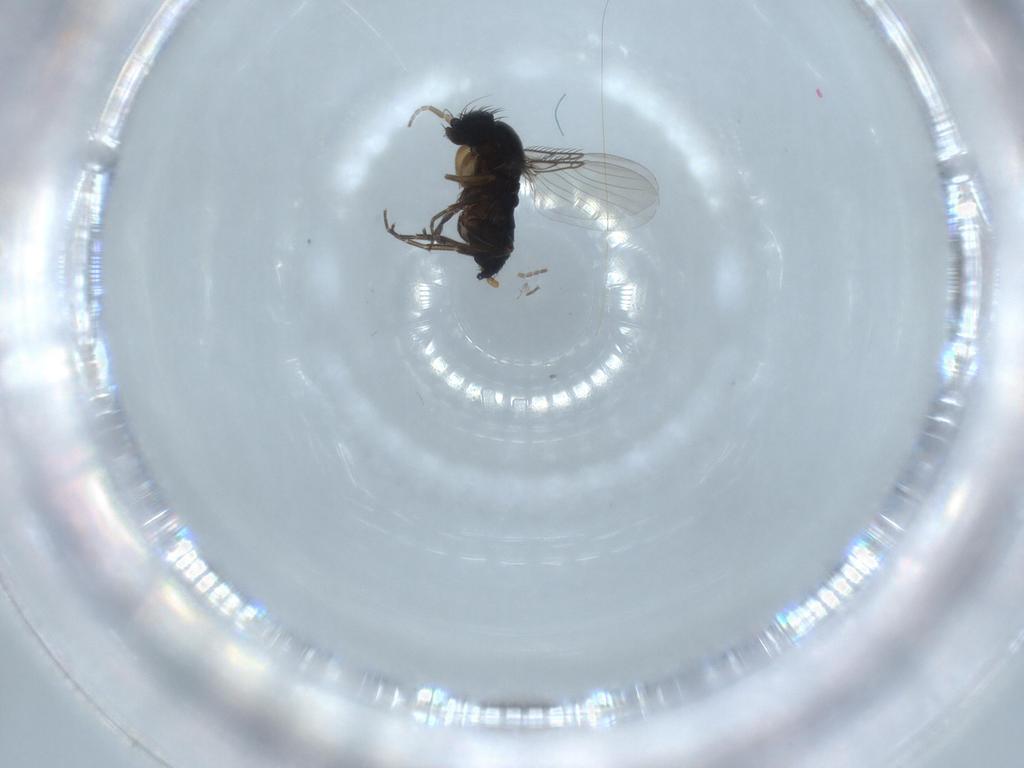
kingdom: Animalia
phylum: Arthropoda
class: Insecta
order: Diptera
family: Phoridae
